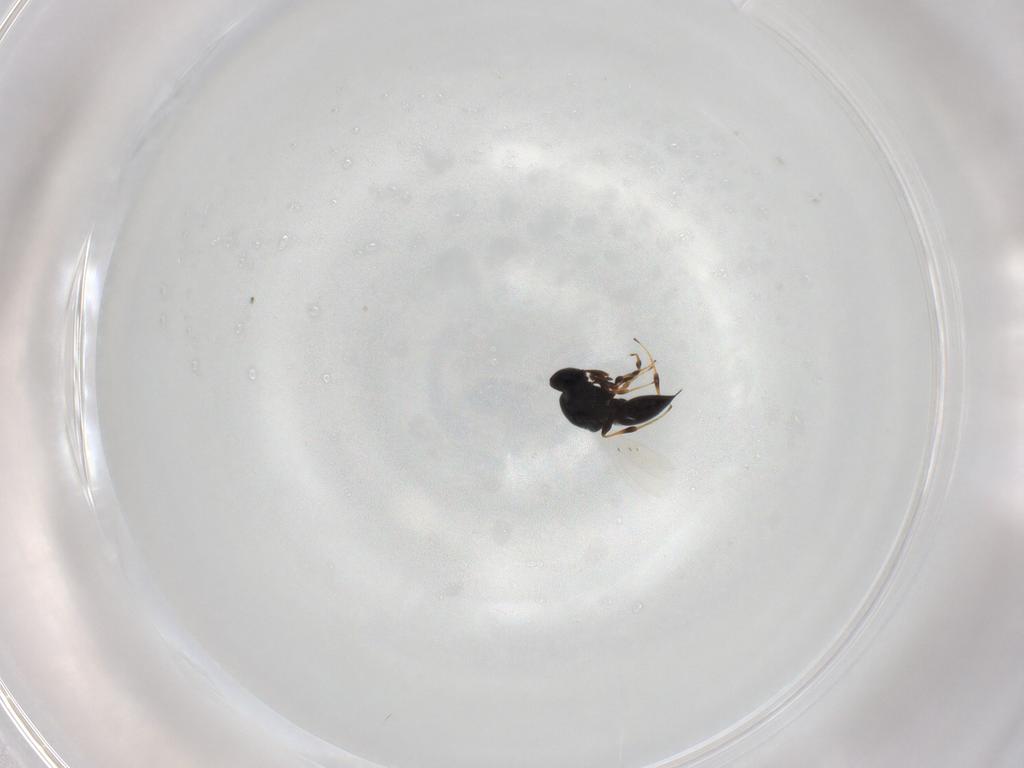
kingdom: Animalia
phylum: Arthropoda
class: Insecta
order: Hymenoptera
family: Platygastridae
